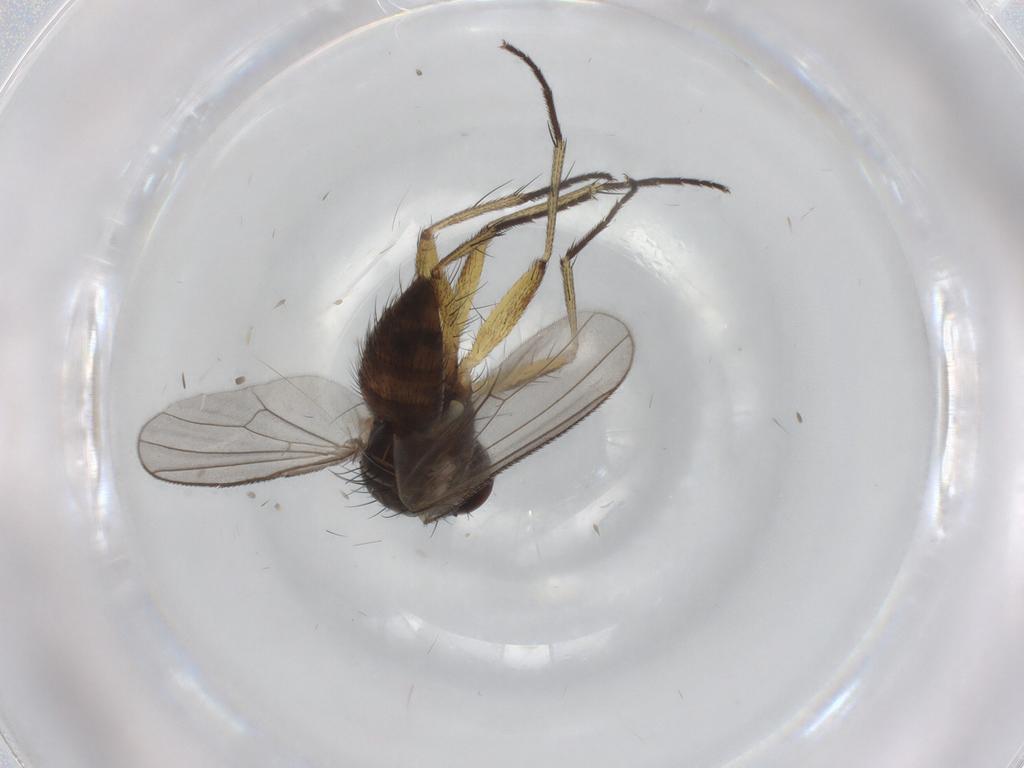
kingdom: Animalia
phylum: Arthropoda
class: Insecta
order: Diptera
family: Muscidae
